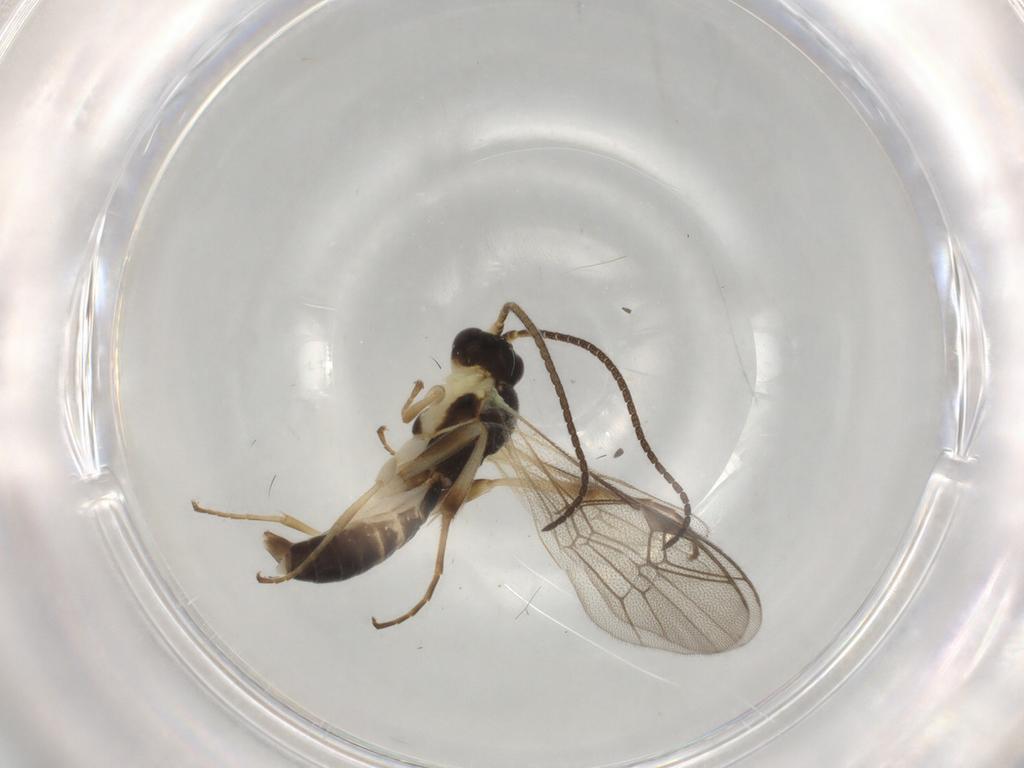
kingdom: Animalia
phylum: Arthropoda
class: Insecta
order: Hymenoptera
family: Ichneumonidae
